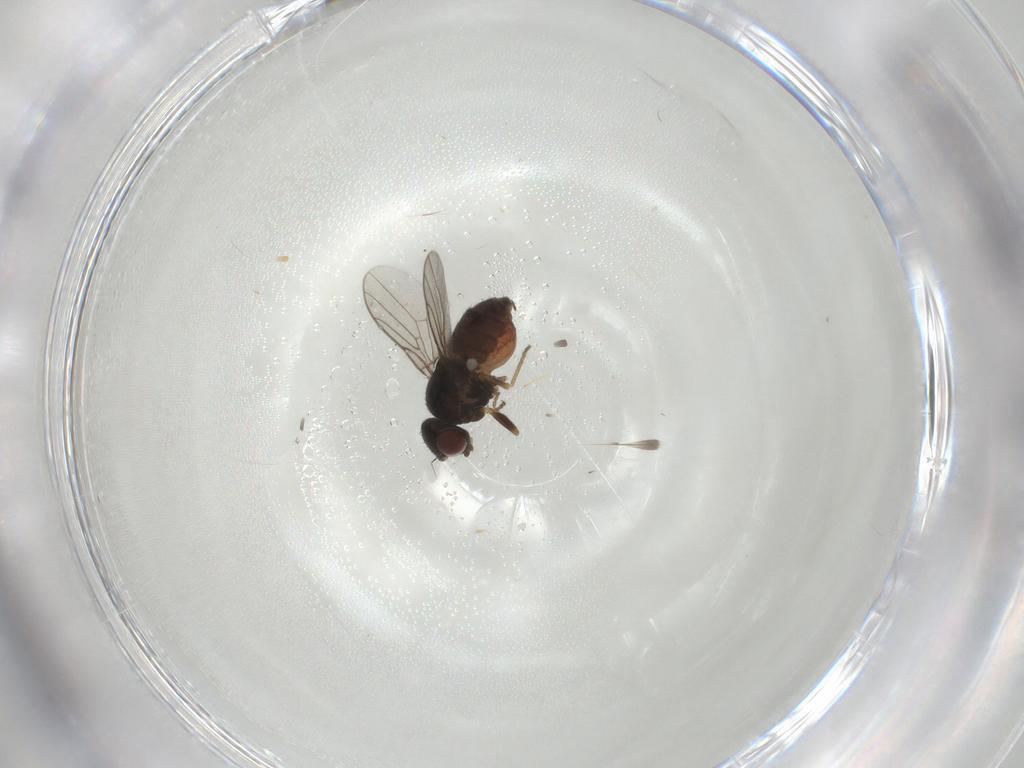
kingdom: Animalia
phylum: Arthropoda
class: Insecta
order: Diptera
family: Chloropidae
